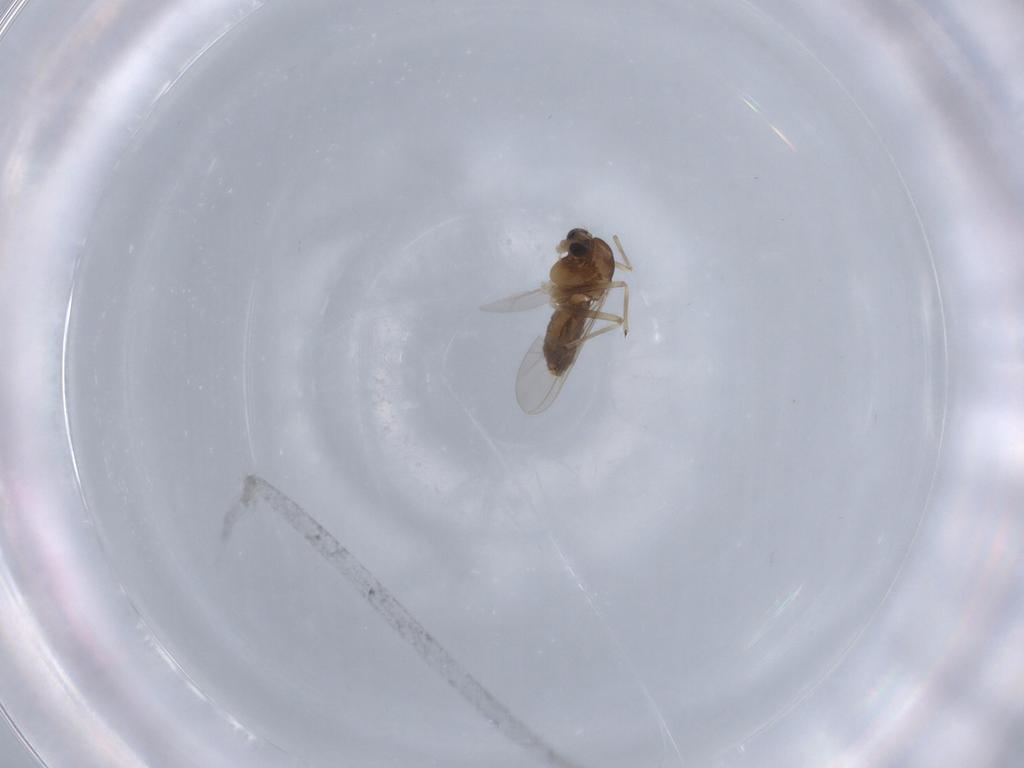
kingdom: Animalia
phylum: Arthropoda
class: Insecta
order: Diptera
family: Chironomidae
